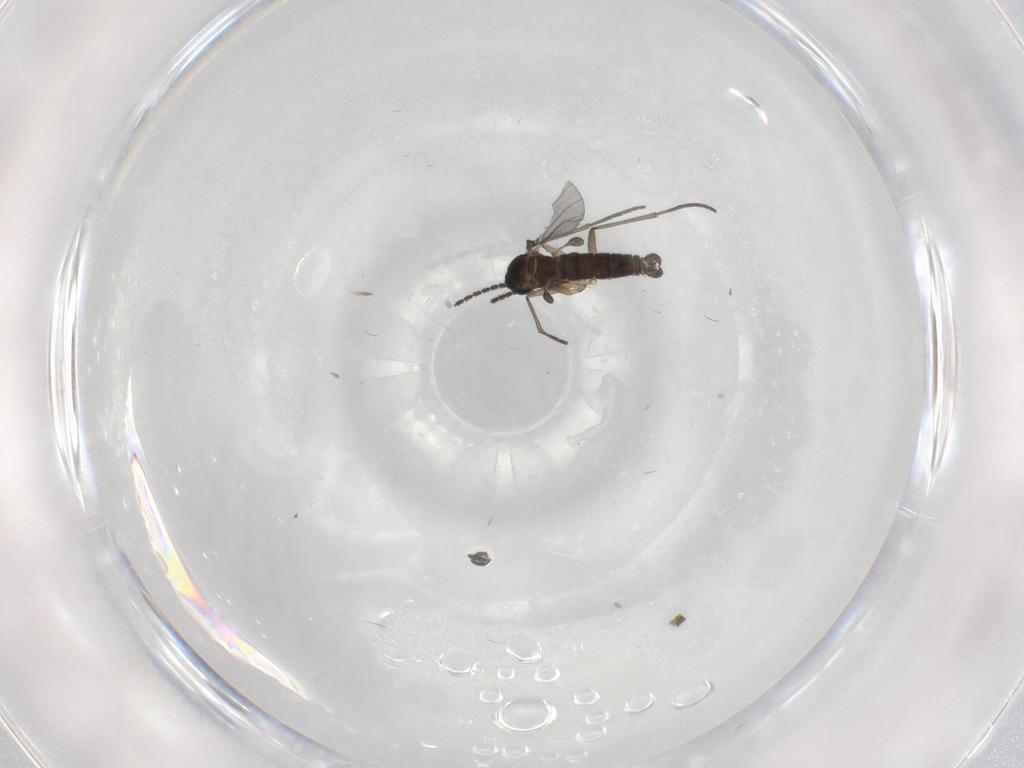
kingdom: Animalia
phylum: Arthropoda
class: Insecta
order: Diptera
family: Sciaridae
